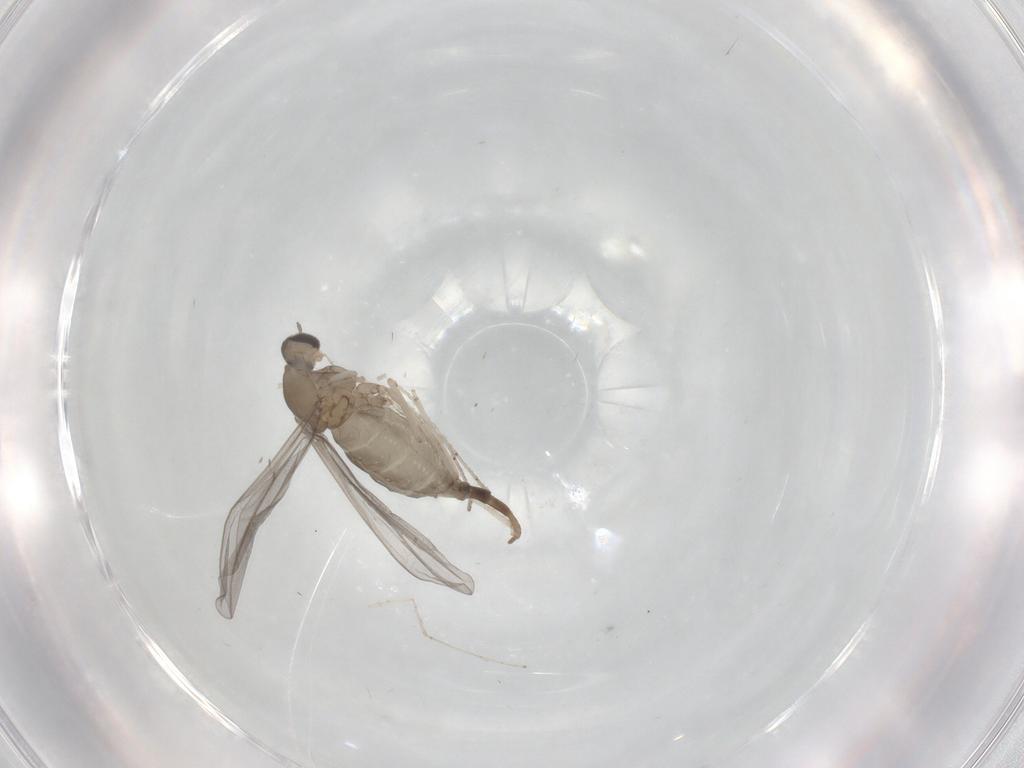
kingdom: Animalia
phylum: Arthropoda
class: Insecta
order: Diptera
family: Cecidomyiidae
